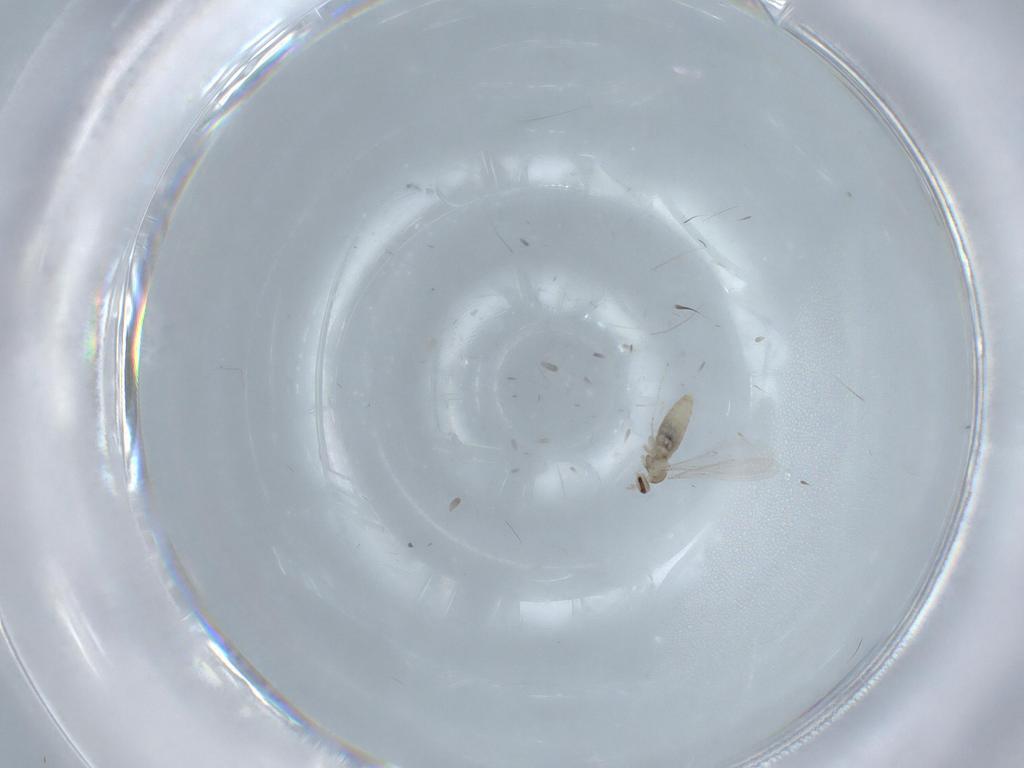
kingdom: Animalia
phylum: Arthropoda
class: Insecta
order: Diptera
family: Cecidomyiidae
